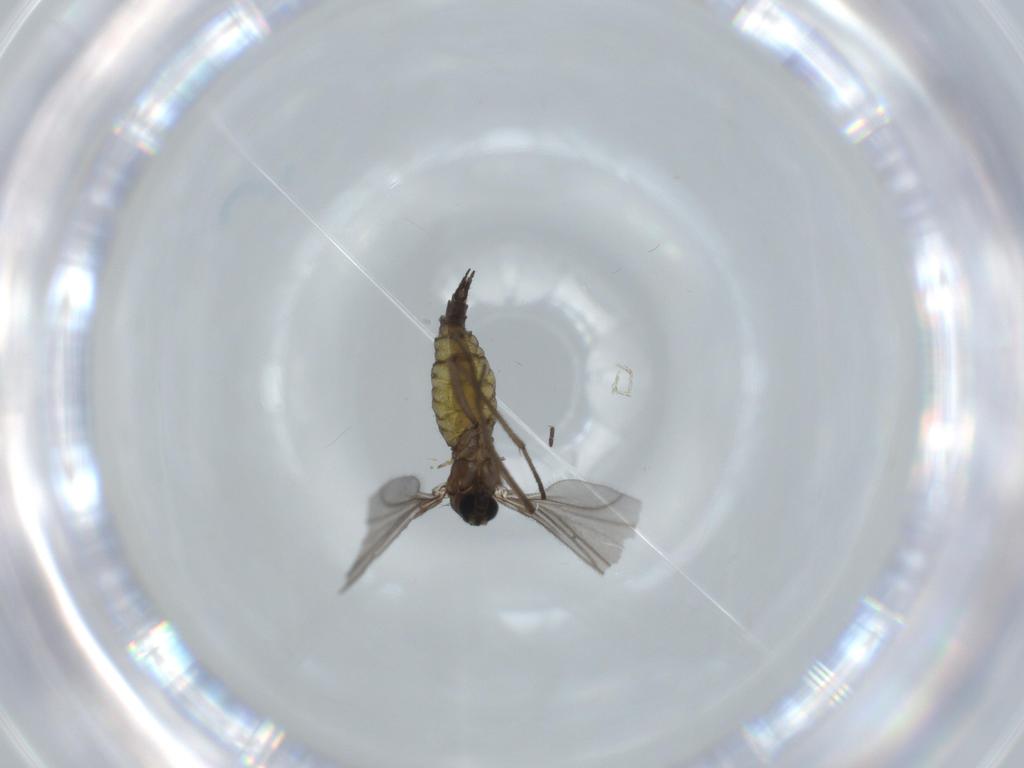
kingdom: Animalia
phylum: Arthropoda
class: Insecta
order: Diptera
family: Sciaridae
